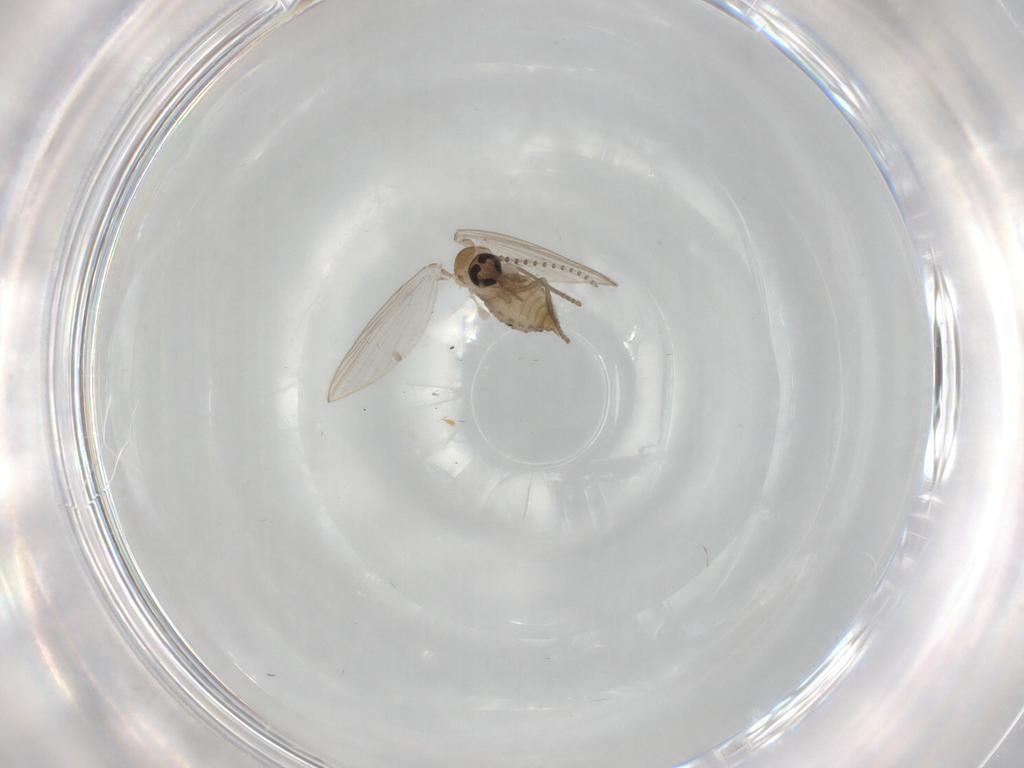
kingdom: Animalia
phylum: Arthropoda
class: Insecta
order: Diptera
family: Psychodidae
